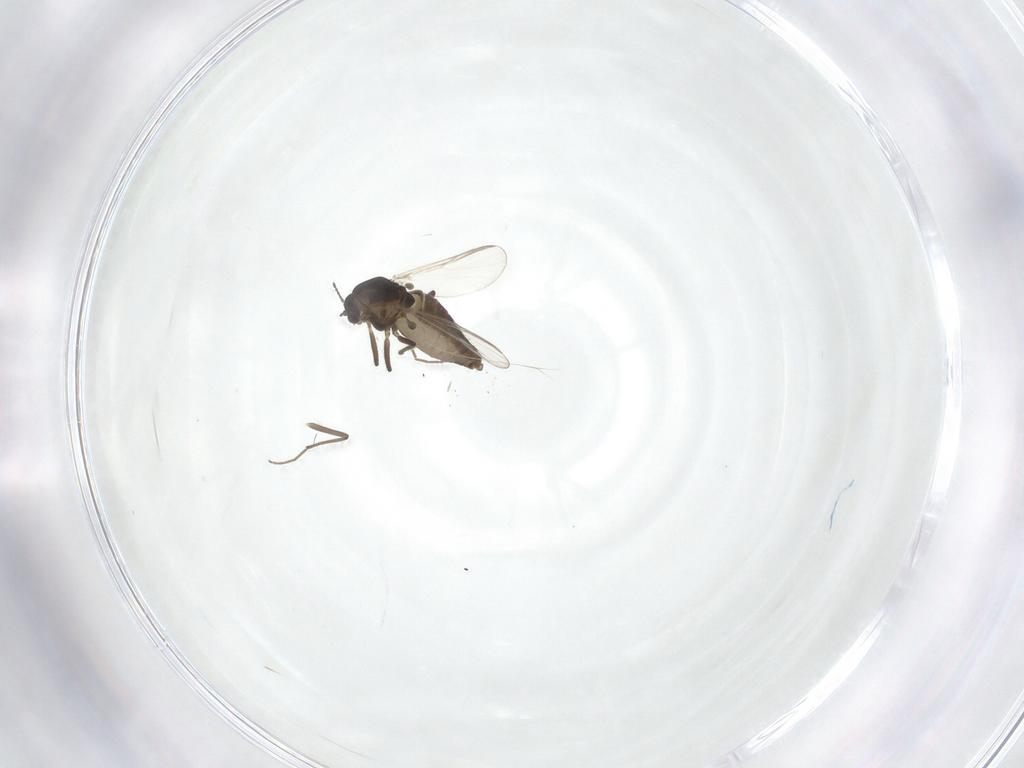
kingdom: Animalia
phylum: Arthropoda
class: Insecta
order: Diptera
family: Chironomidae
